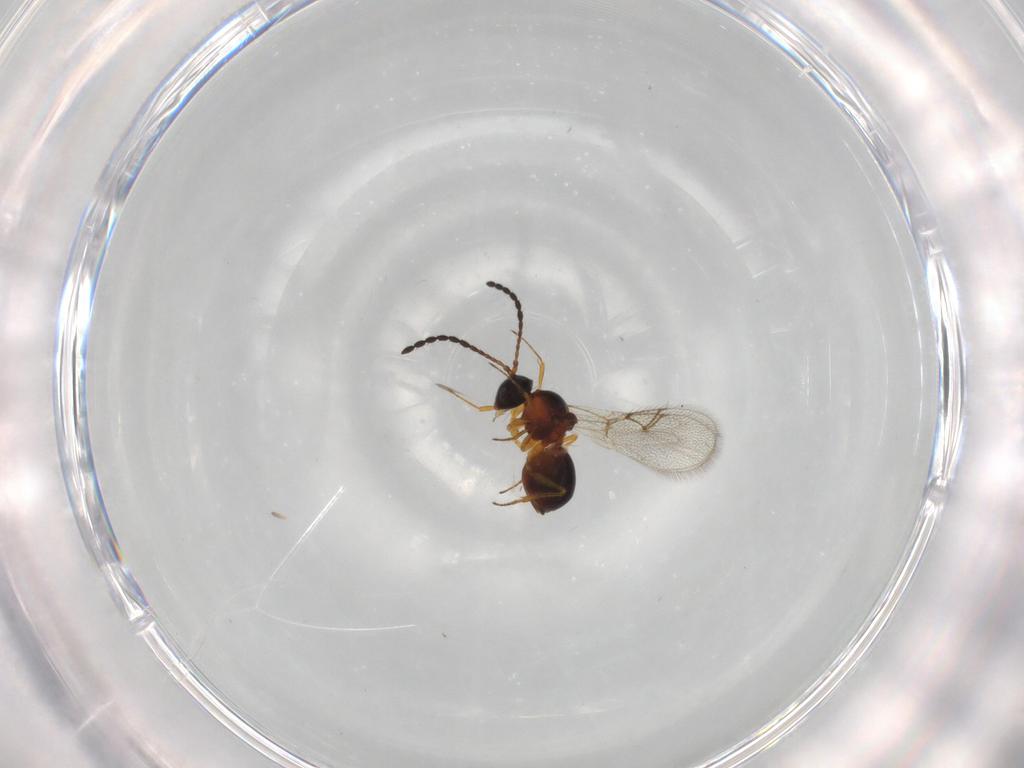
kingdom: Animalia
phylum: Arthropoda
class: Insecta
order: Hymenoptera
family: Figitidae
